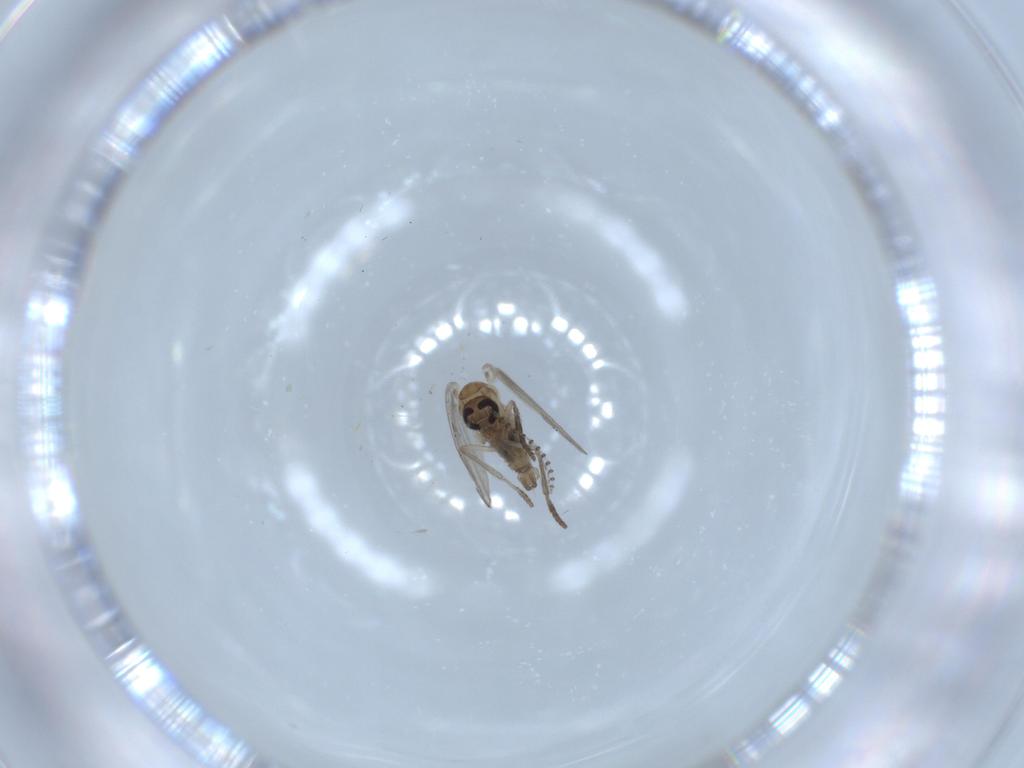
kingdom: Animalia
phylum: Arthropoda
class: Insecta
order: Diptera
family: Psychodidae
